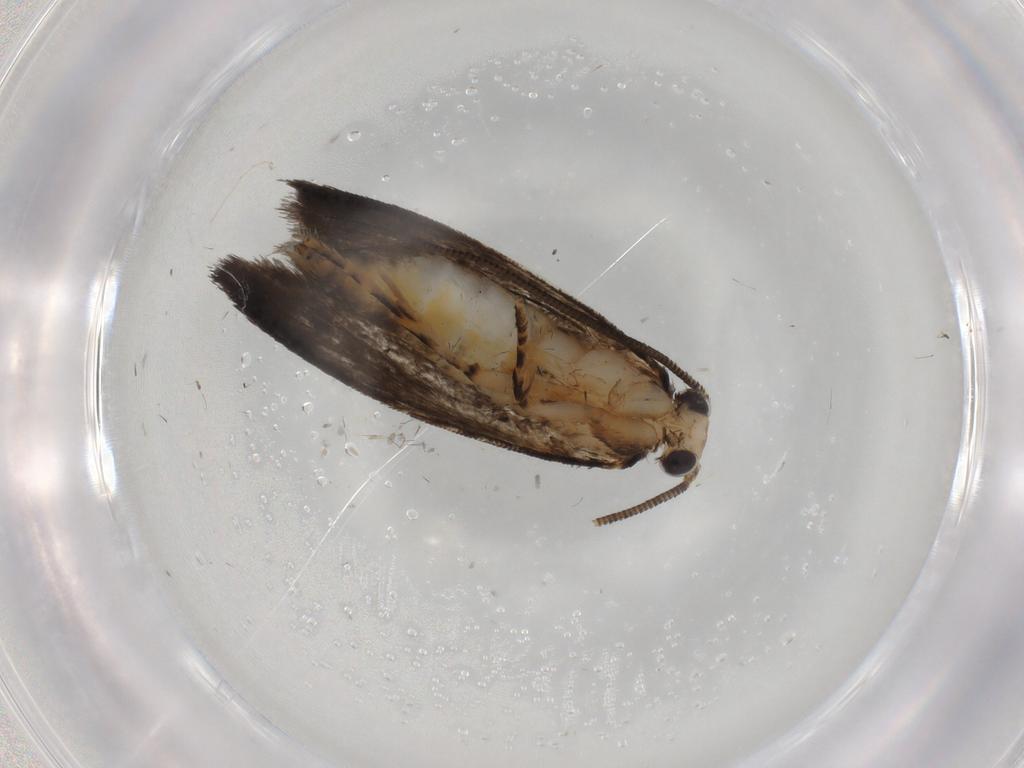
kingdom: Animalia
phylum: Arthropoda
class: Insecta
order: Lepidoptera
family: Tineidae
